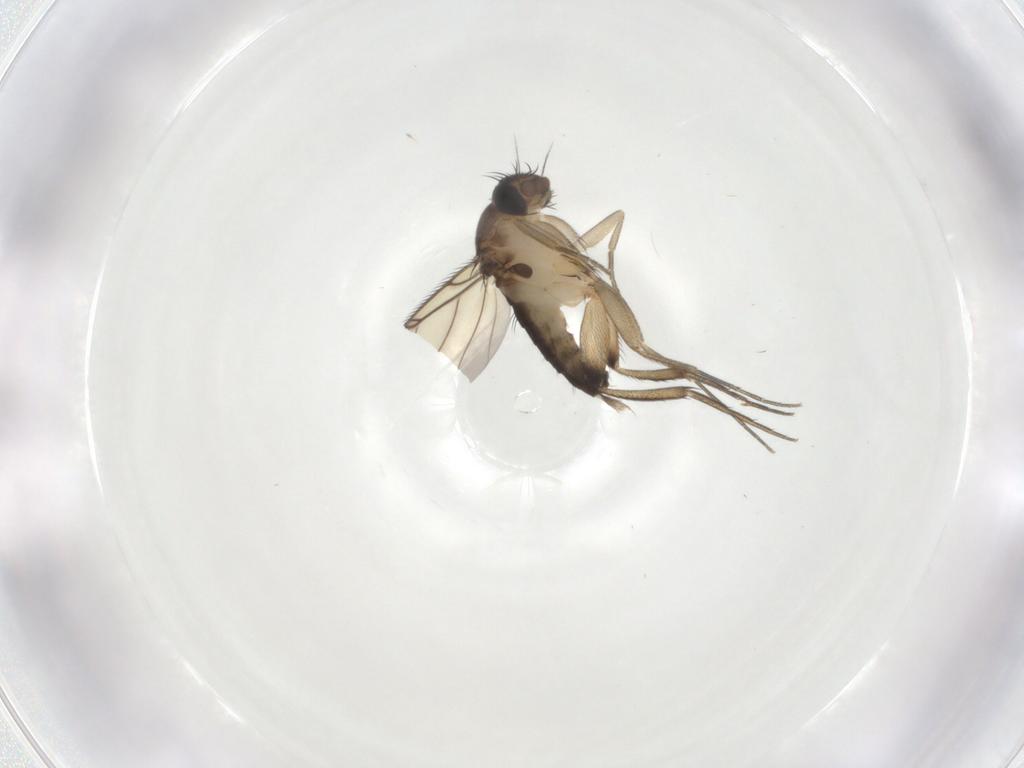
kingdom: Animalia
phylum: Arthropoda
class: Insecta
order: Diptera
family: Phoridae
